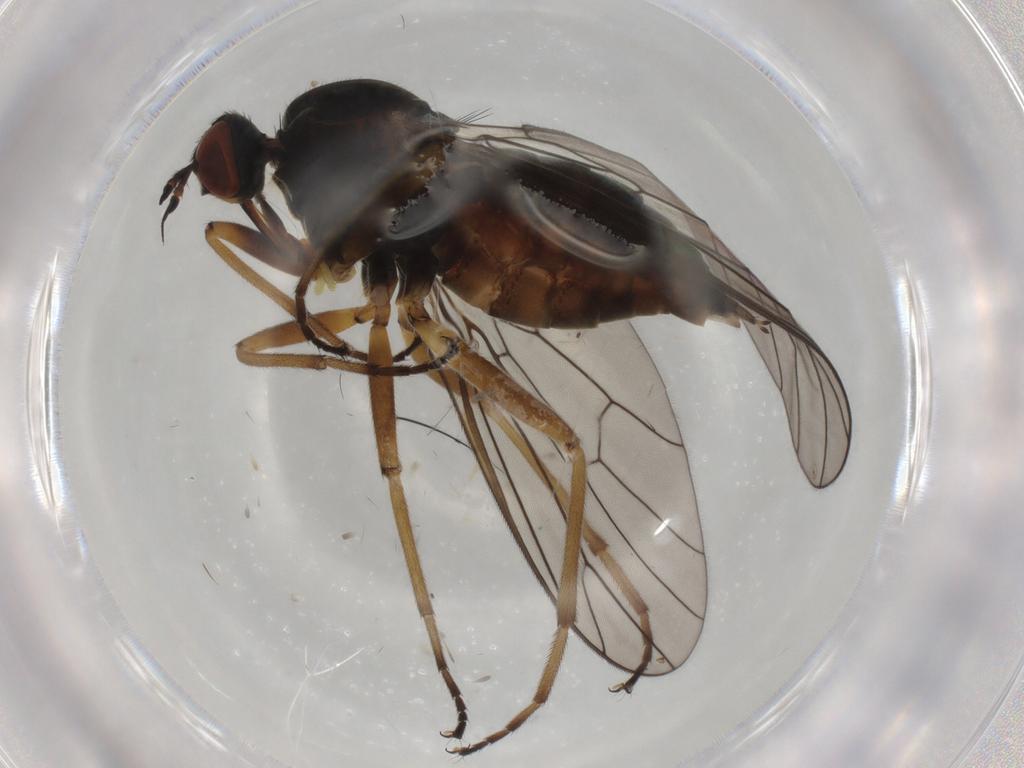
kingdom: Animalia
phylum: Arthropoda
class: Insecta
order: Diptera
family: Empididae
